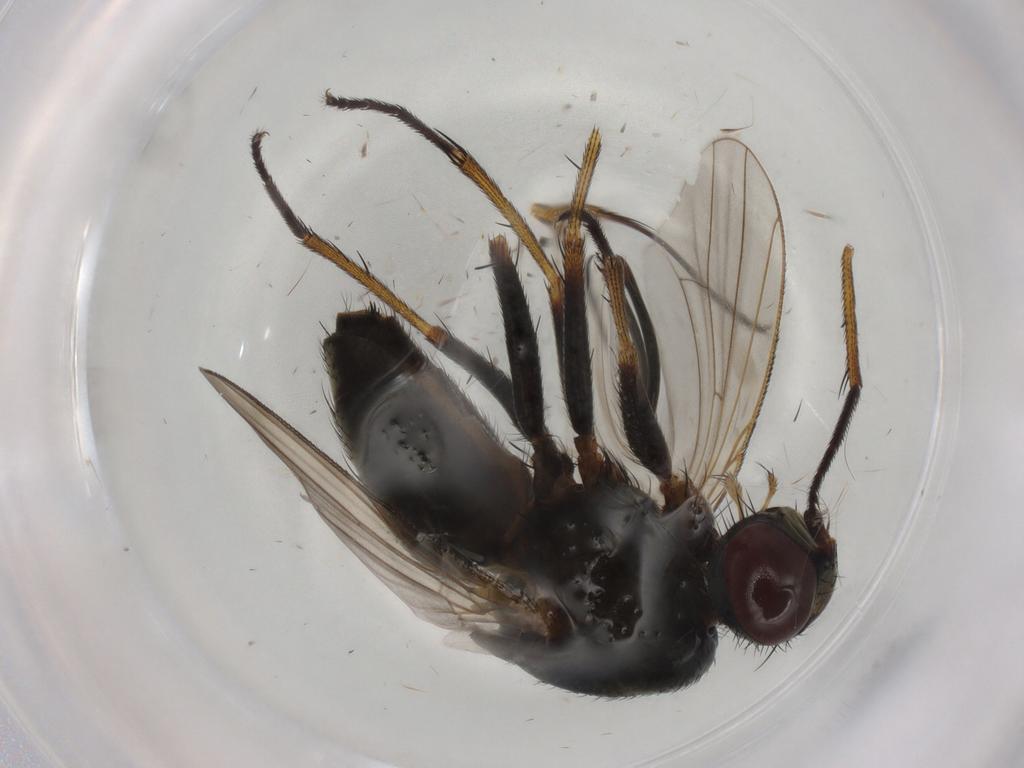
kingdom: Animalia
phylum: Arthropoda
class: Insecta
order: Diptera
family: Muscidae
